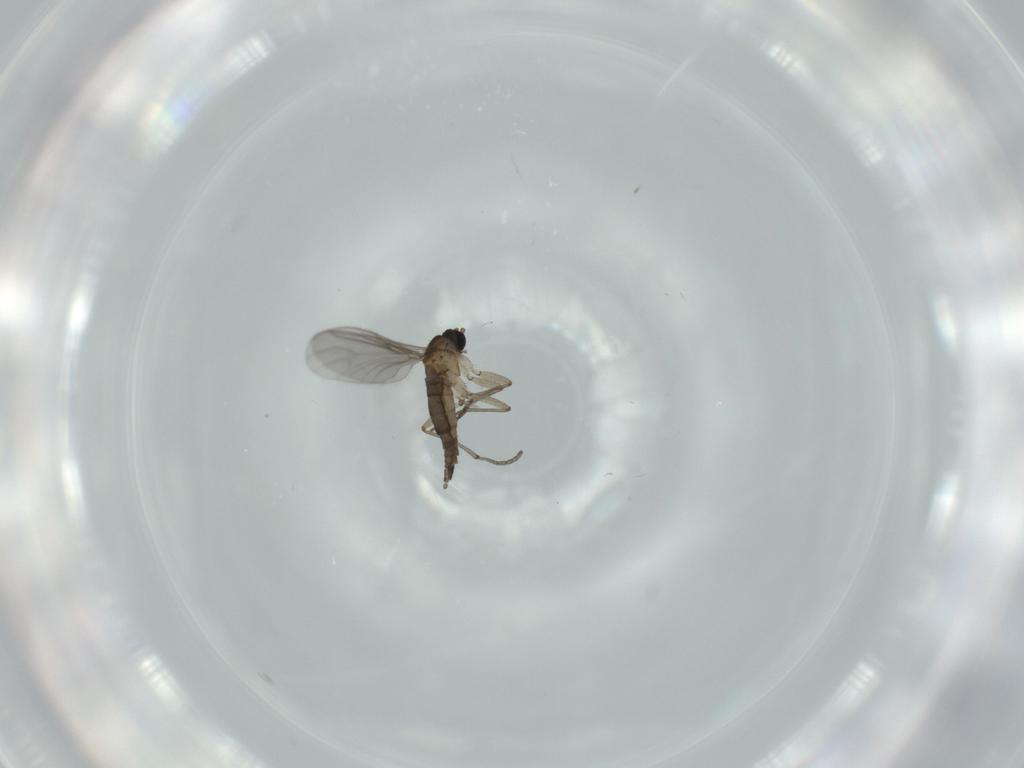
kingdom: Animalia
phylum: Arthropoda
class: Insecta
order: Diptera
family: Sciaridae
